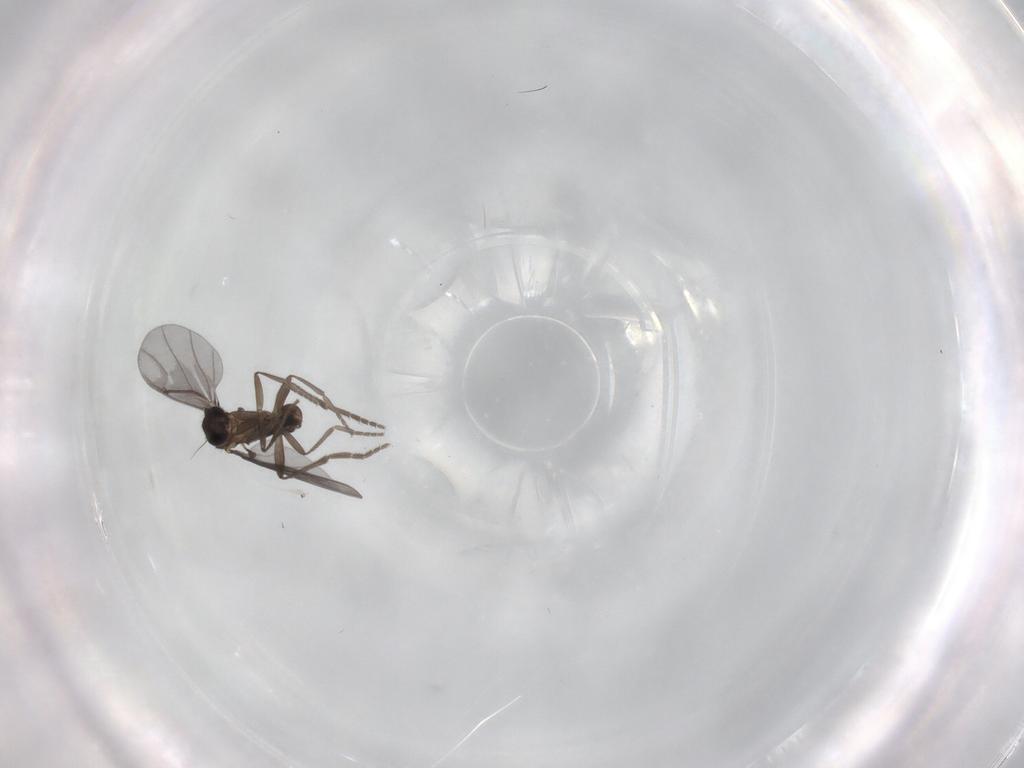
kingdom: Animalia
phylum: Arthropoda
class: Insecta
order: Diptera
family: Phoridae
